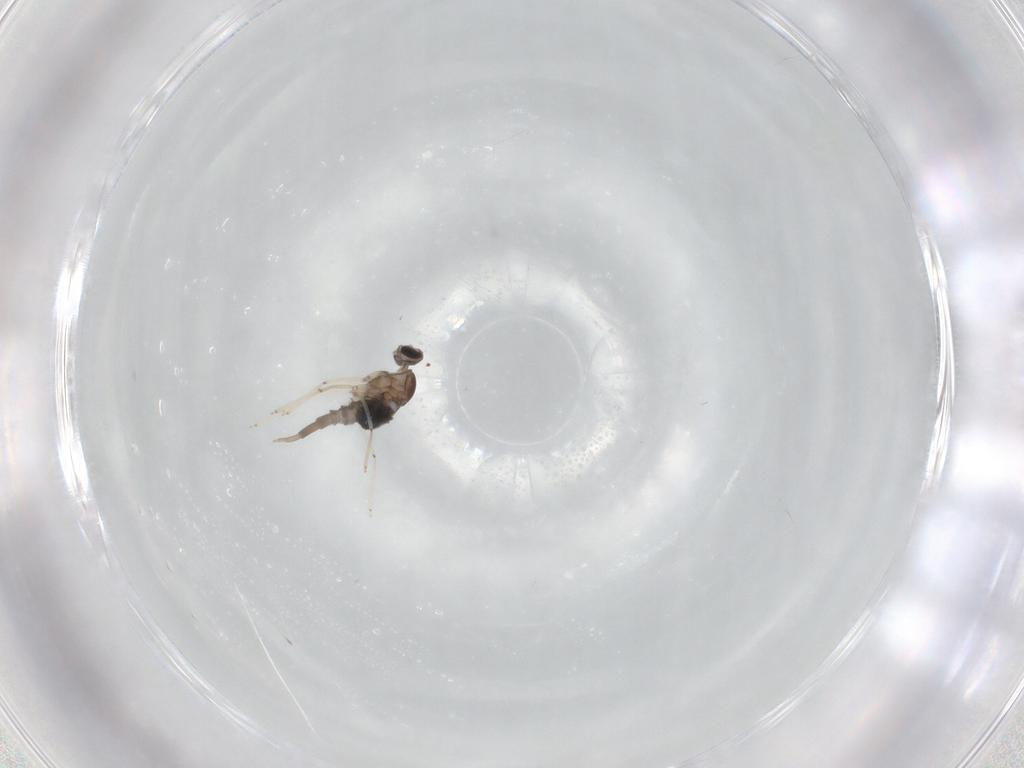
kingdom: Animalia
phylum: Arthropoda
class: Insecta
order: Diptera
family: Cecidomyiidae
